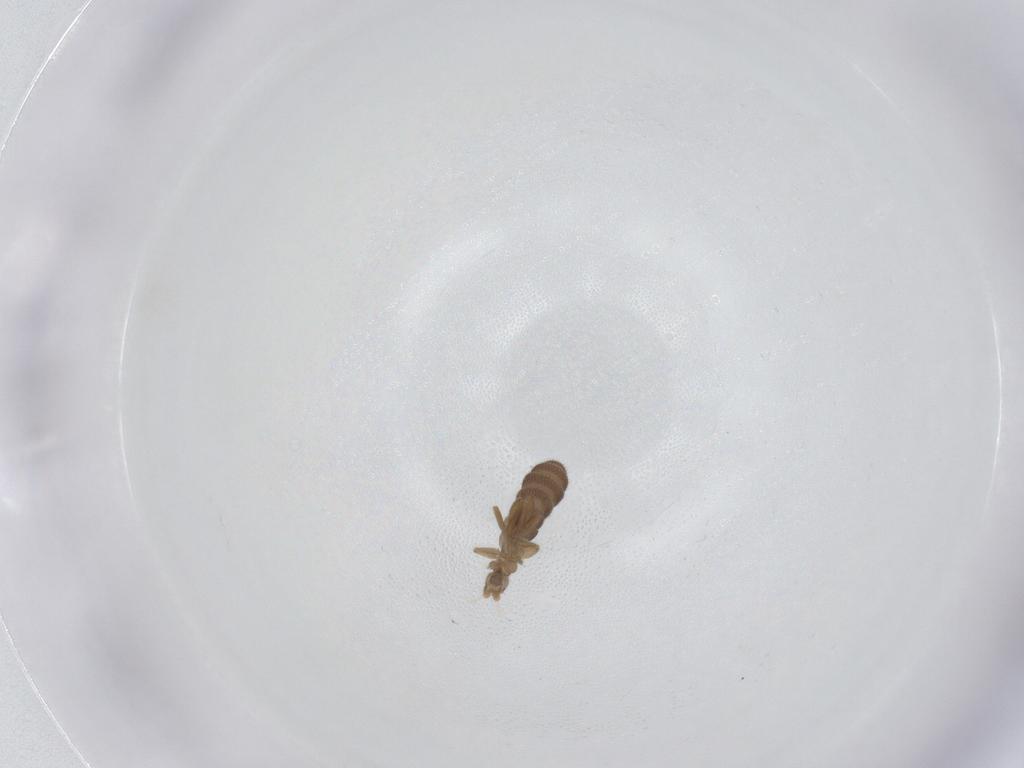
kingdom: Animalia
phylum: Arthropoda
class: Insecta
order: Diptera
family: Phoridae
